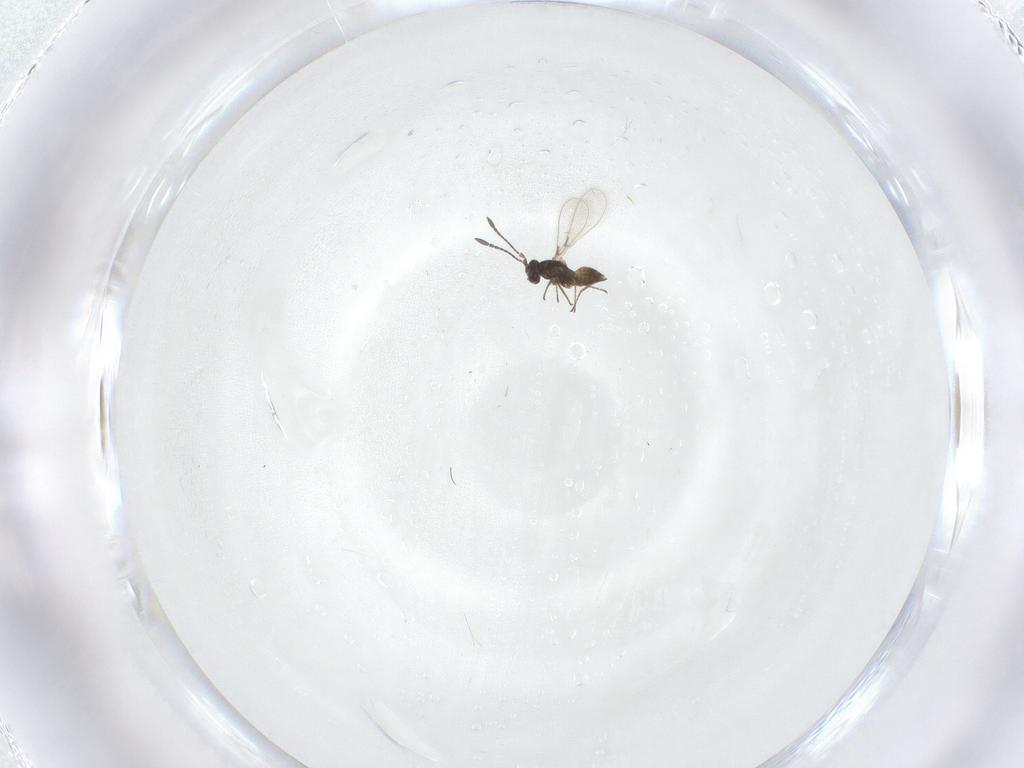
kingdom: Animalia
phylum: Arthropoda
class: Insecta
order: Hymenoptera
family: Mymaridae
